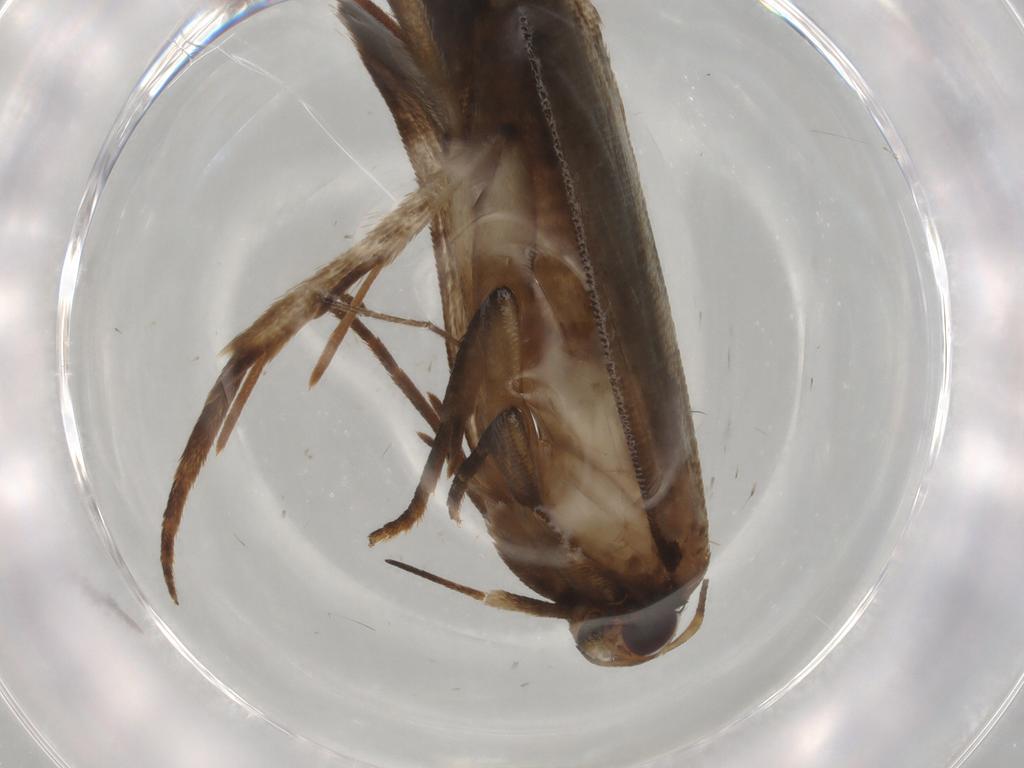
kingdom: Animalia
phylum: Arthropoda
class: Insecta
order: Lepidoptera
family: Gelechiidae
